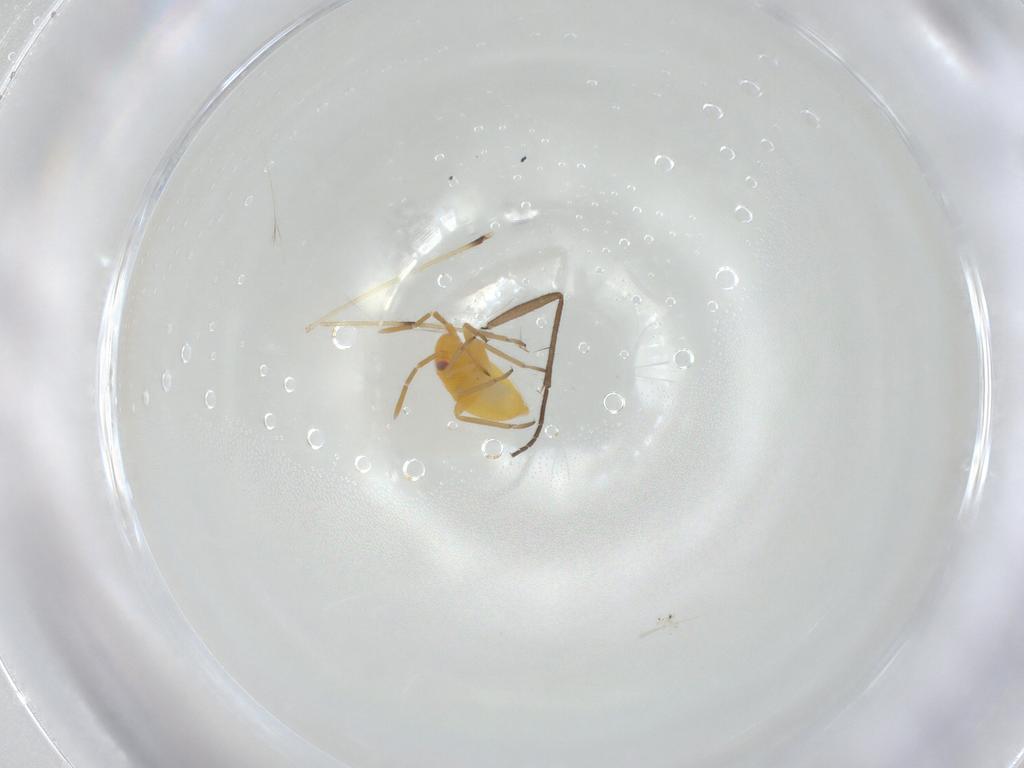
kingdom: Animalia
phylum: Arthropoda
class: Insecta
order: Hemiptera
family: Miridae
